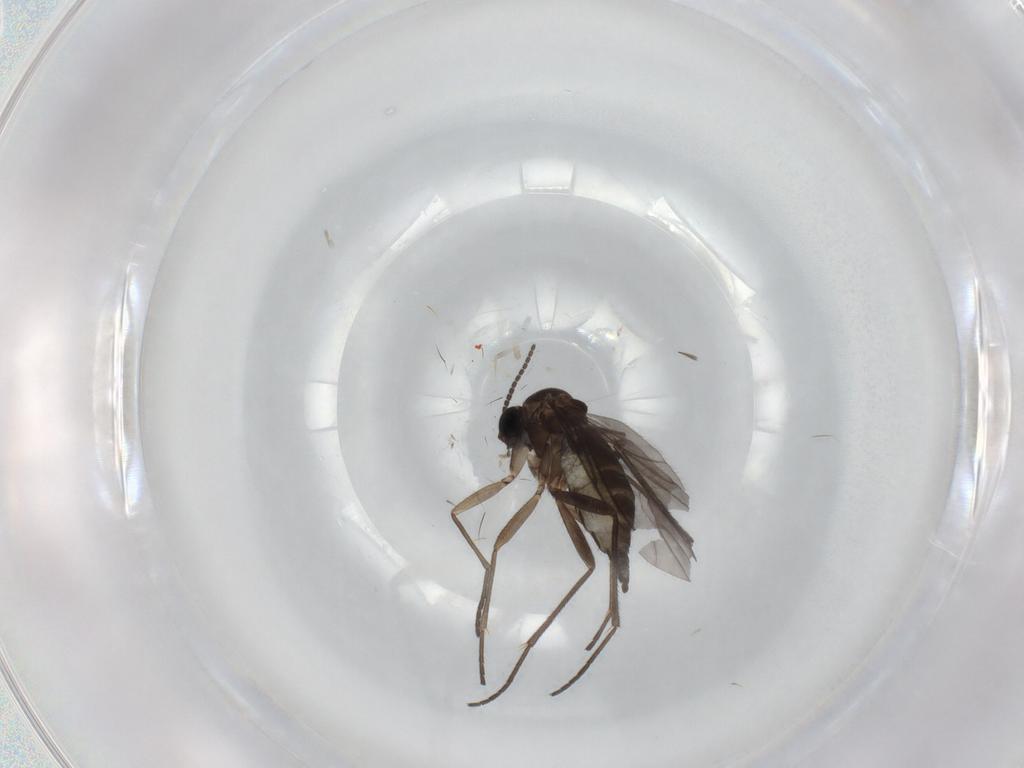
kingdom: Animalia
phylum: Arthropoda
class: Insecta
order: Diptera
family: Sciaridae
